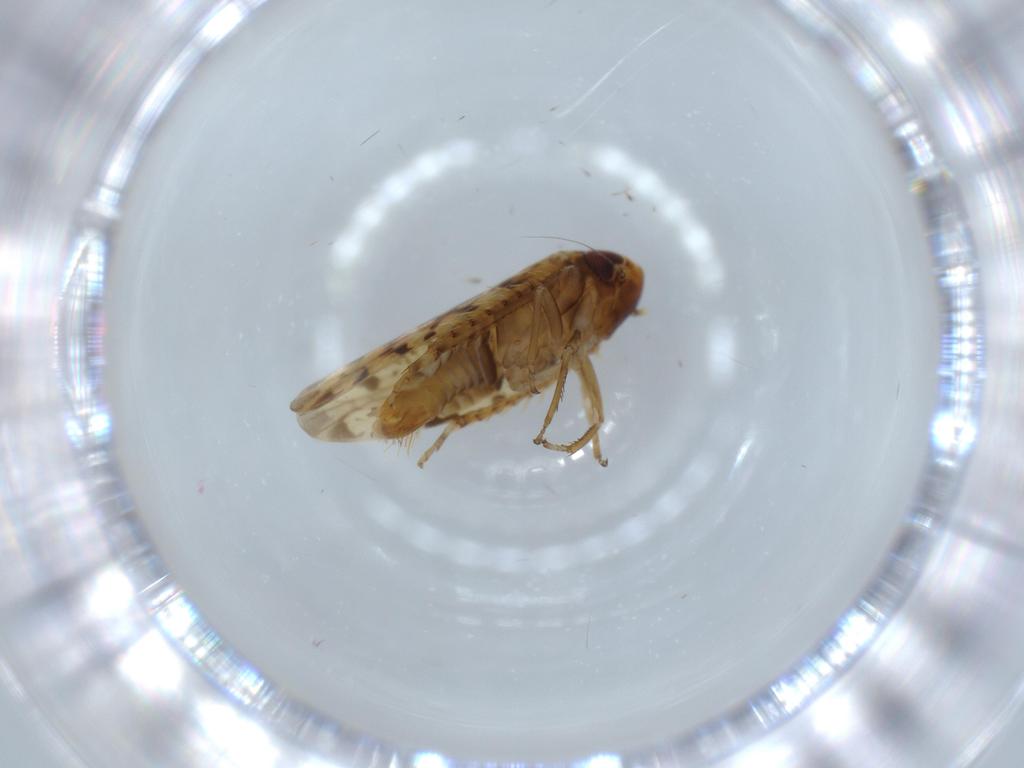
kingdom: Animalia
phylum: Arthropoda
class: Insecta
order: Hemiptera
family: Cicadellidae
